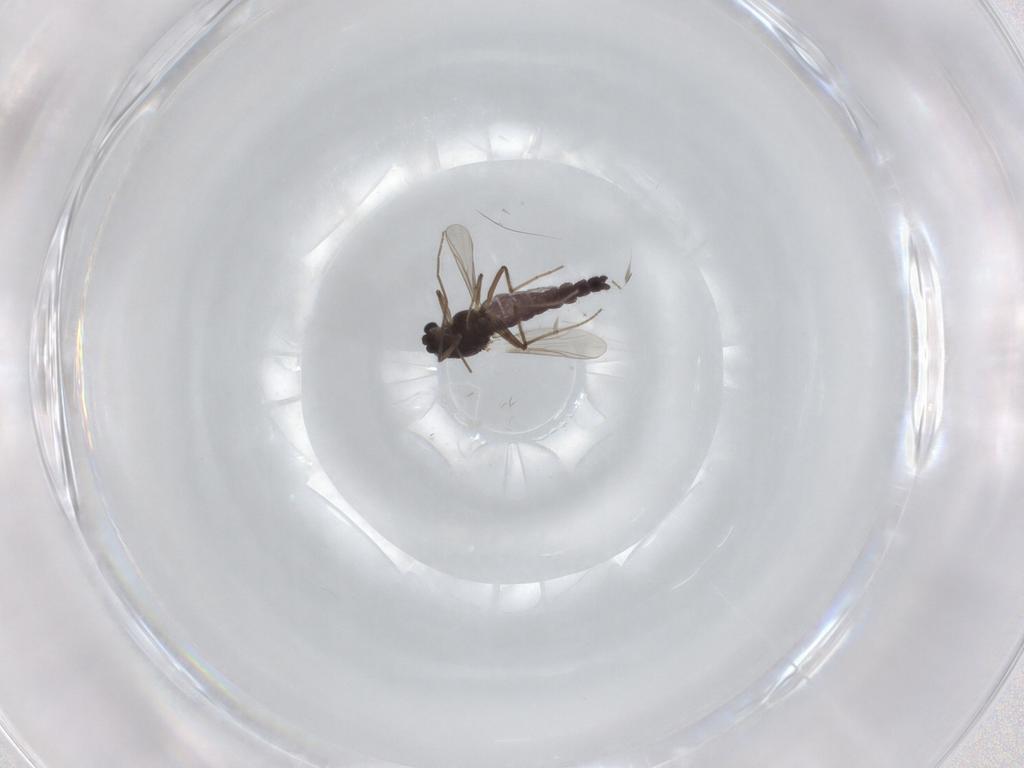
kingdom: Animalia
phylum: Arthropoda
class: Insecta
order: Diptera
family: Chironomidae
